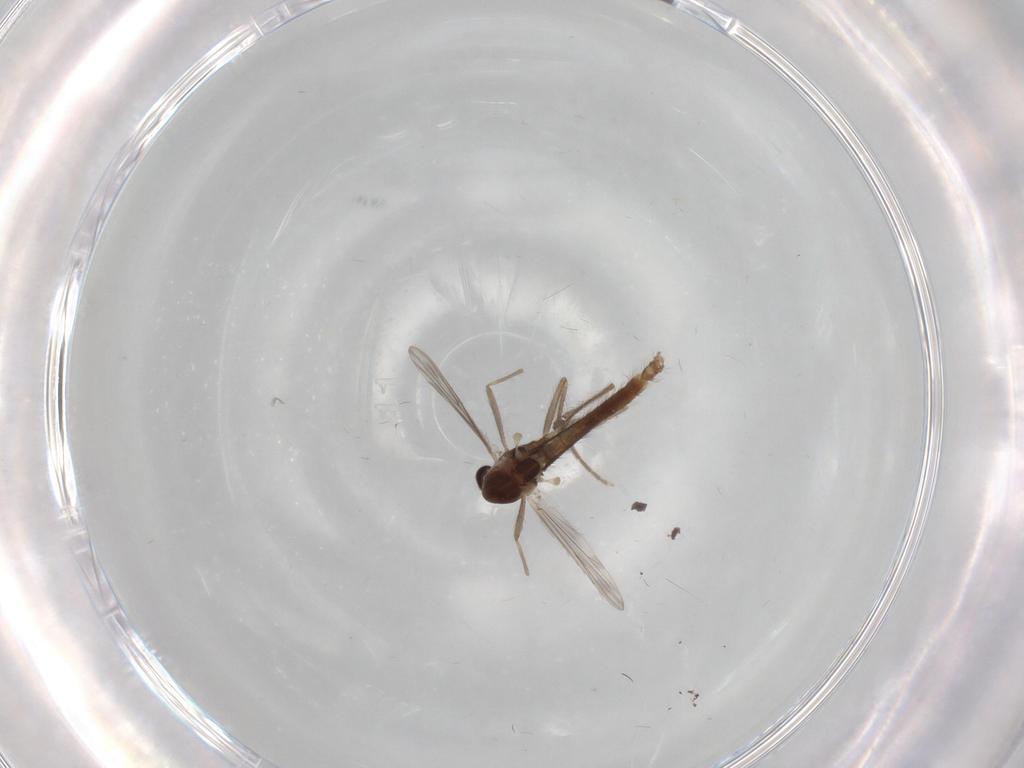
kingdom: Animalia
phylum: Arthropoda
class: Insecta
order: Diptera
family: Chironomidae
